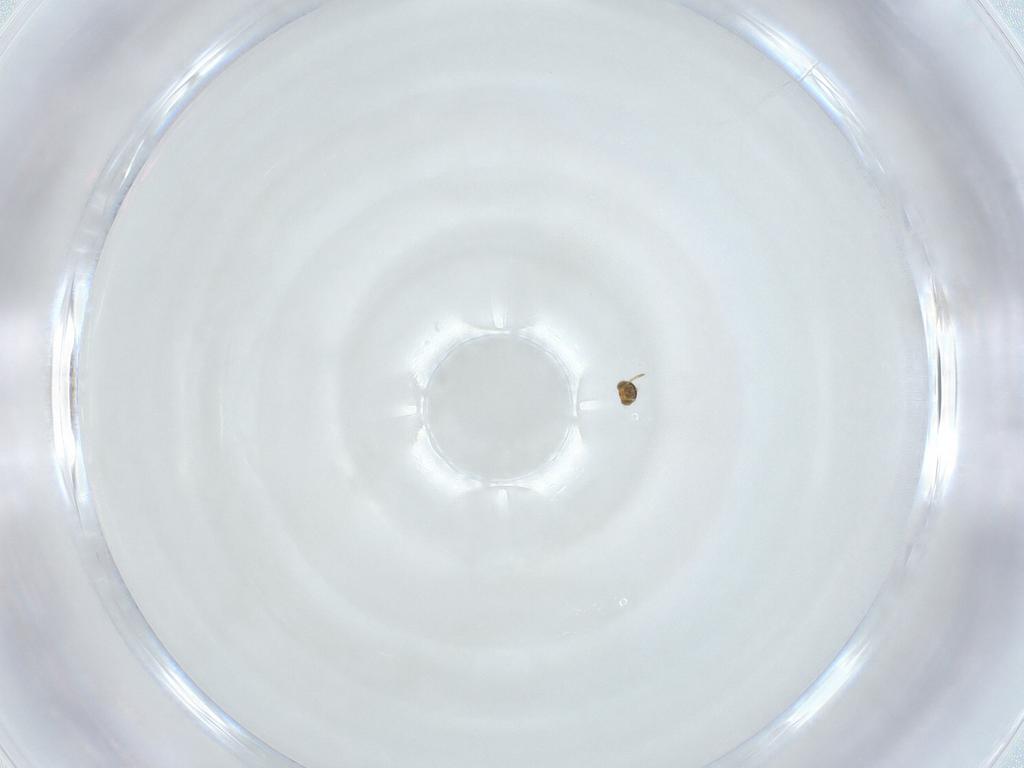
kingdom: Animalia
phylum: Arthropoda
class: Insecta
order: Hymenoptera
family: Aphelinidae
